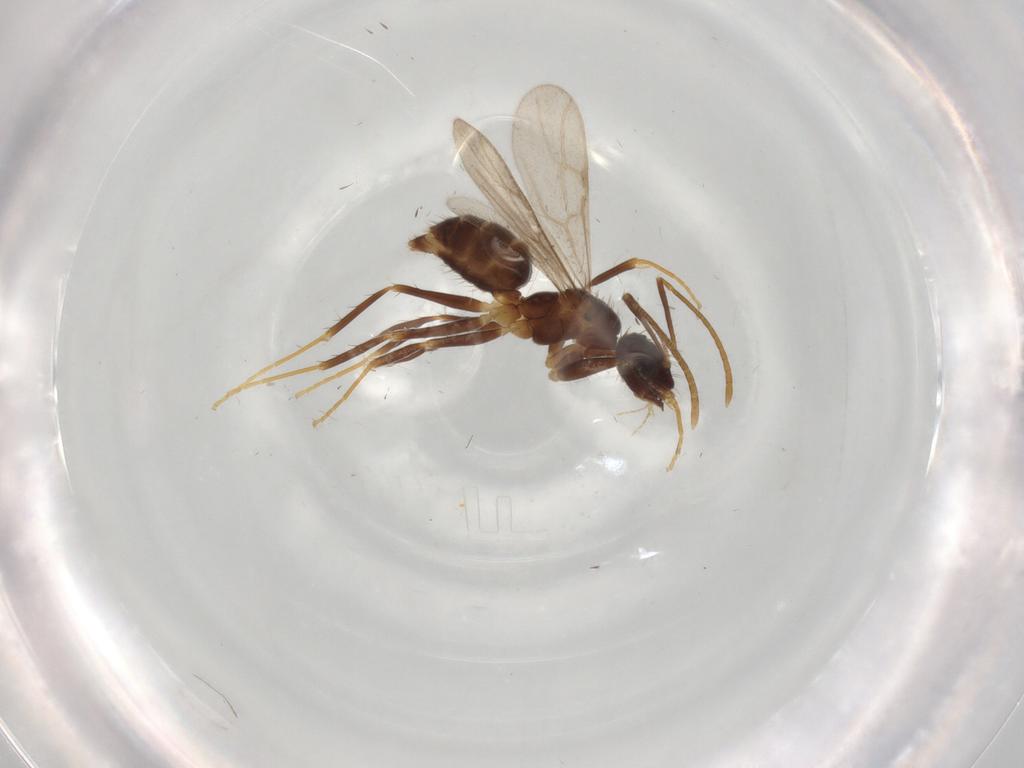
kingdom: Animalia
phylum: Arthropoda
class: Insecta
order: Hymenoptera
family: Formicidae
